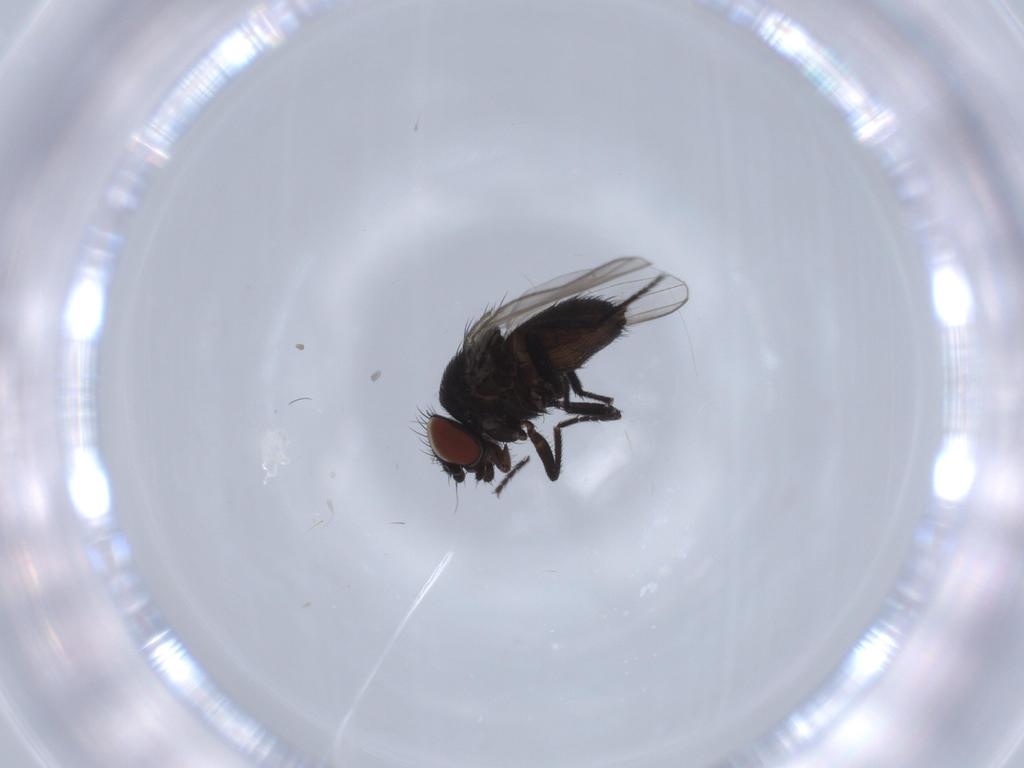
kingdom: Animalia
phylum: Arthropoda
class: Insecta
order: Diptera
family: Milichiidae
